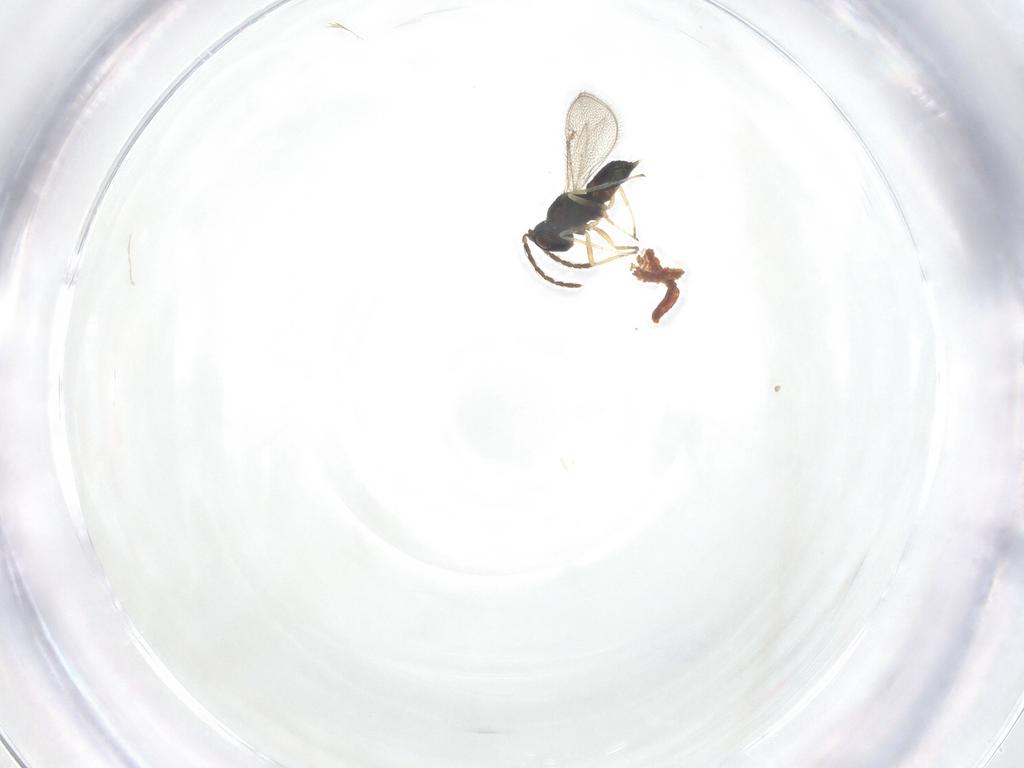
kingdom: Animalia
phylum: Arthropoda
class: Insecta
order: Hymenoptera
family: Eulophidae
